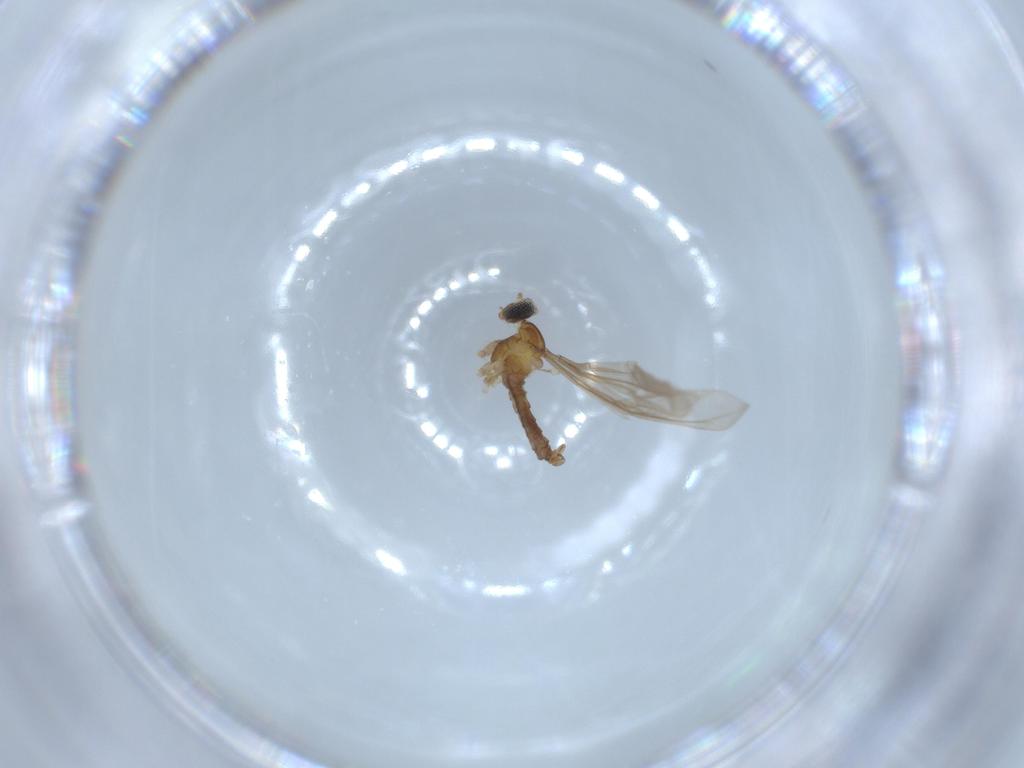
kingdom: Animalia
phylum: Arthropoda
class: Insecta
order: Diptera
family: Cecidomyiidae
